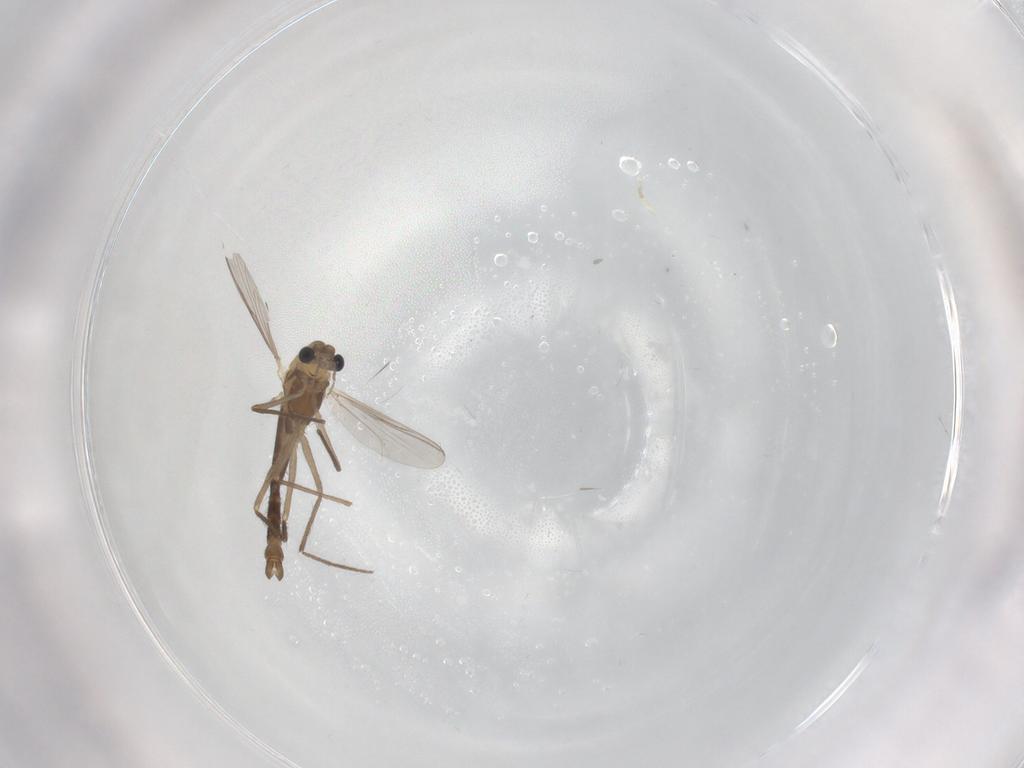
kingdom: Animalia
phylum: Arthropoda
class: Insecta
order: Diptera
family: Chironomidae
